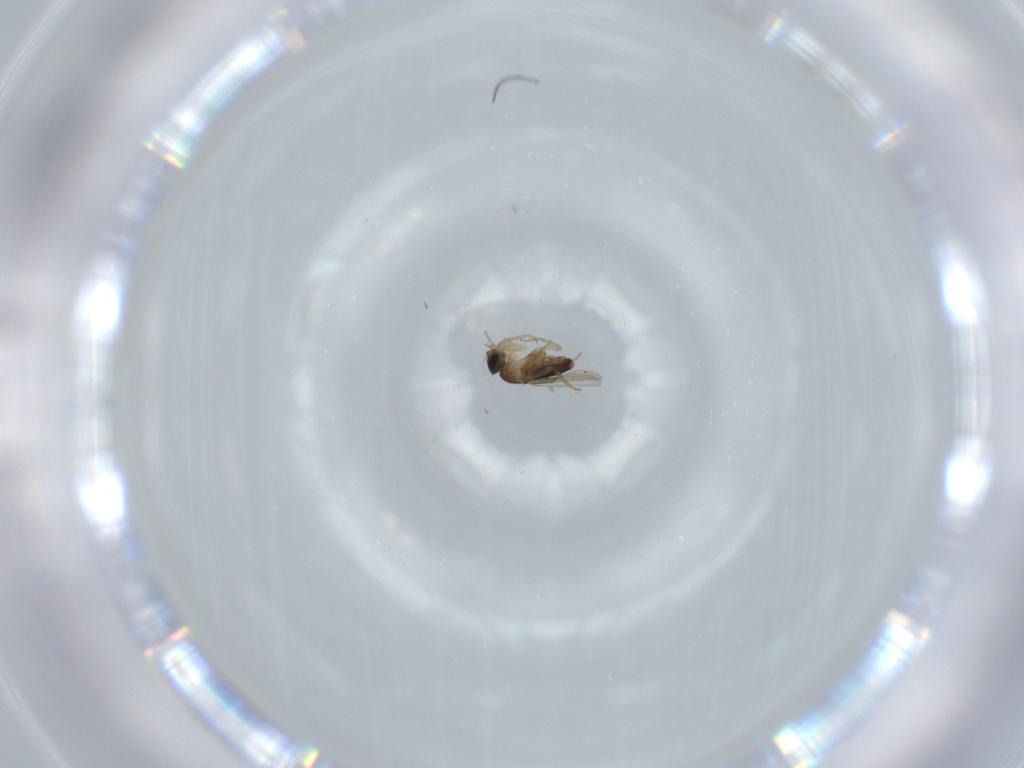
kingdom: Animalia
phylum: Arthropoda
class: Insecta
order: Diptera
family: Phoridae
